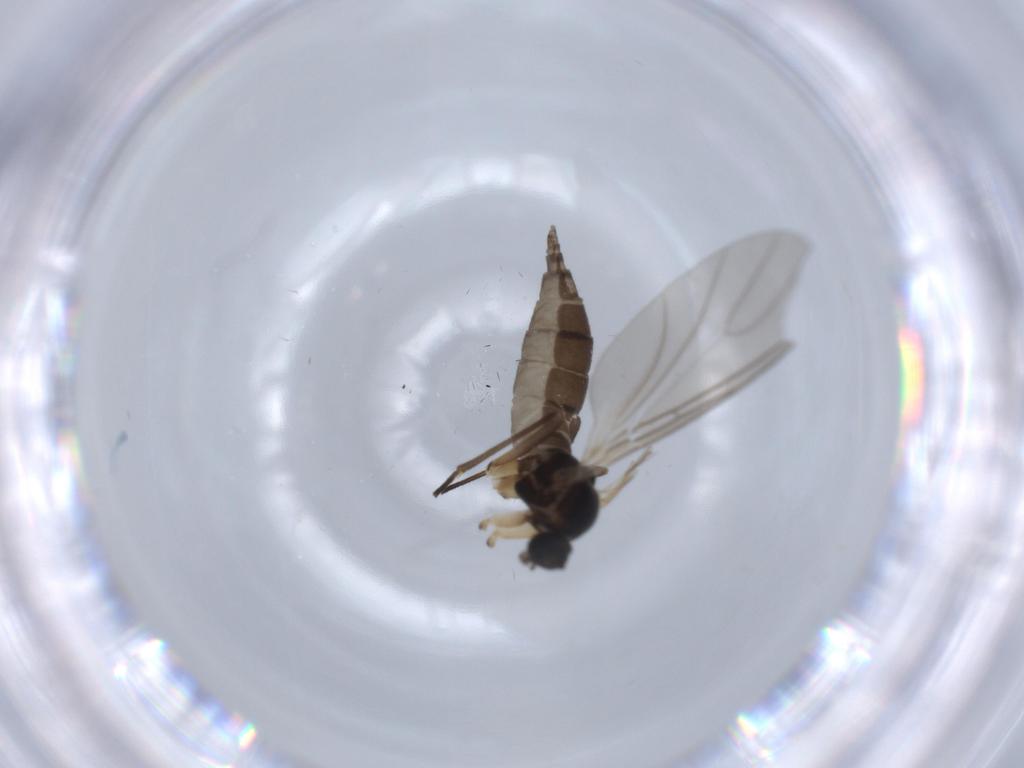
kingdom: Animalia
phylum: Arthropoda
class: Insecta
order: Diptera
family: Sciaridae
